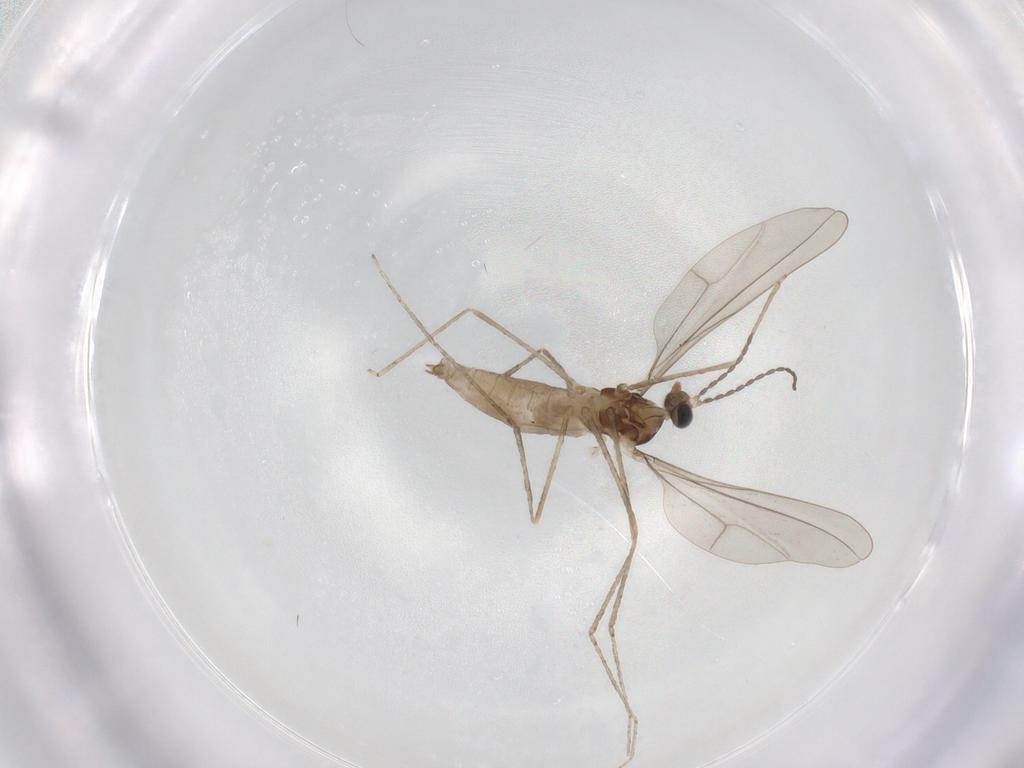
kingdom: Animalia
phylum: Arthropoda
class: Insecta
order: Diptera
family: Cecidomyiidae
